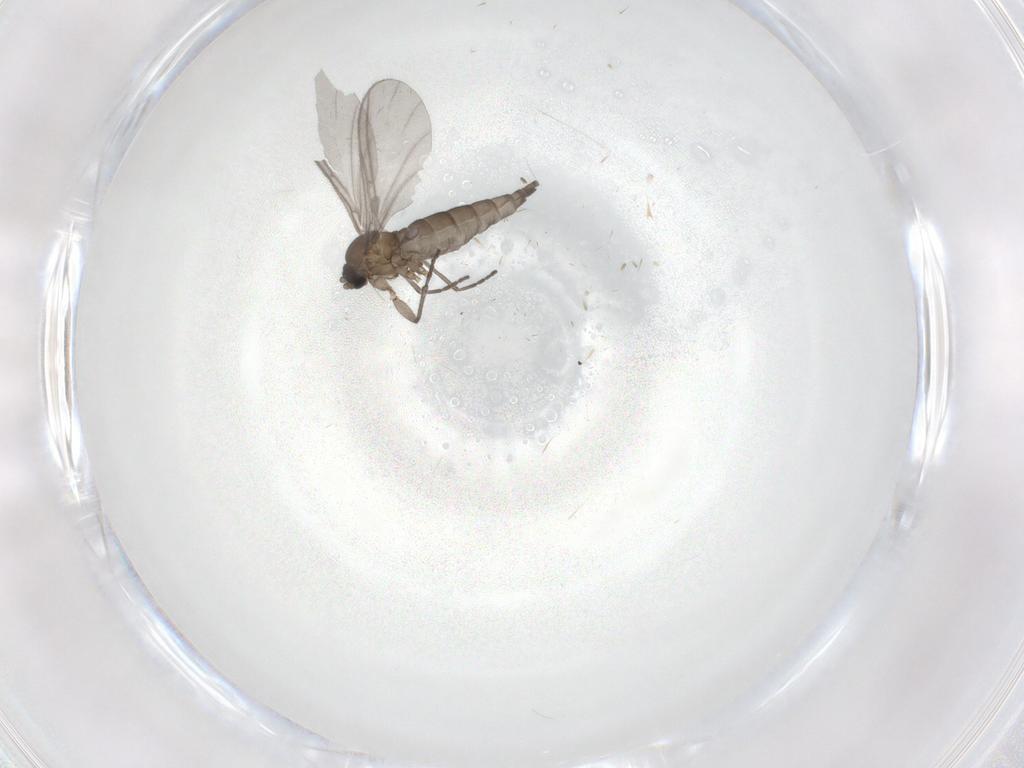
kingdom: Animalia
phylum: Arthropoda
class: Insecta
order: Diptera
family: Sciaridae
